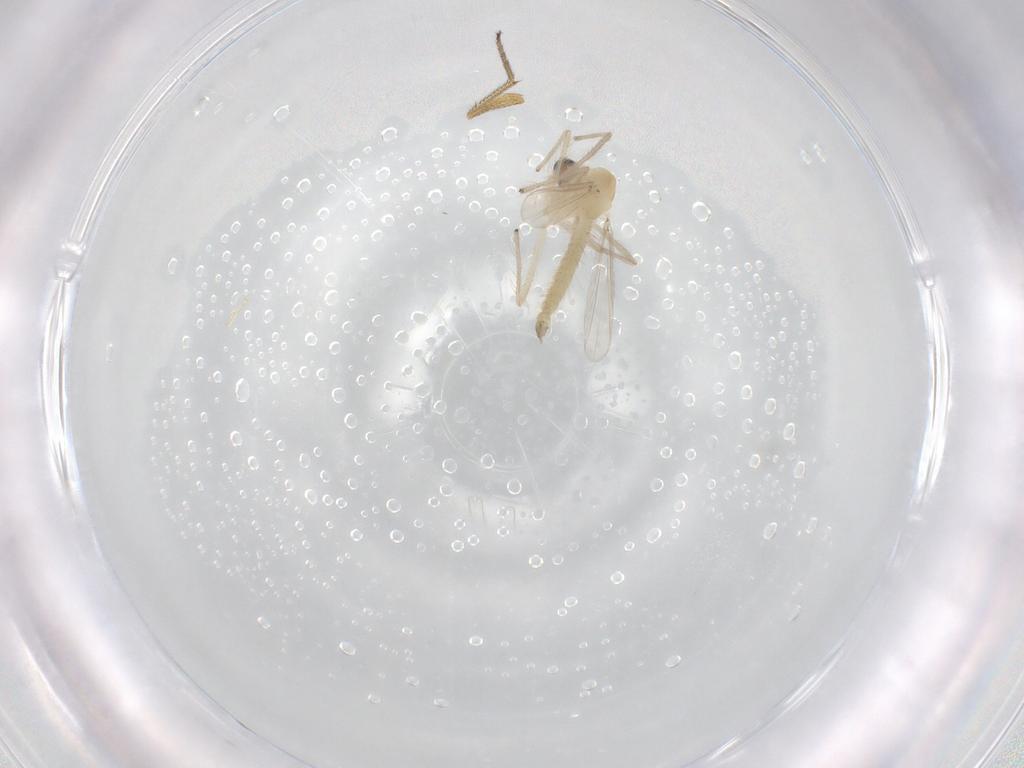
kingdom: Animalia
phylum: Arthropoda
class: Insecta
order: Diptera
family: Chironomidae
